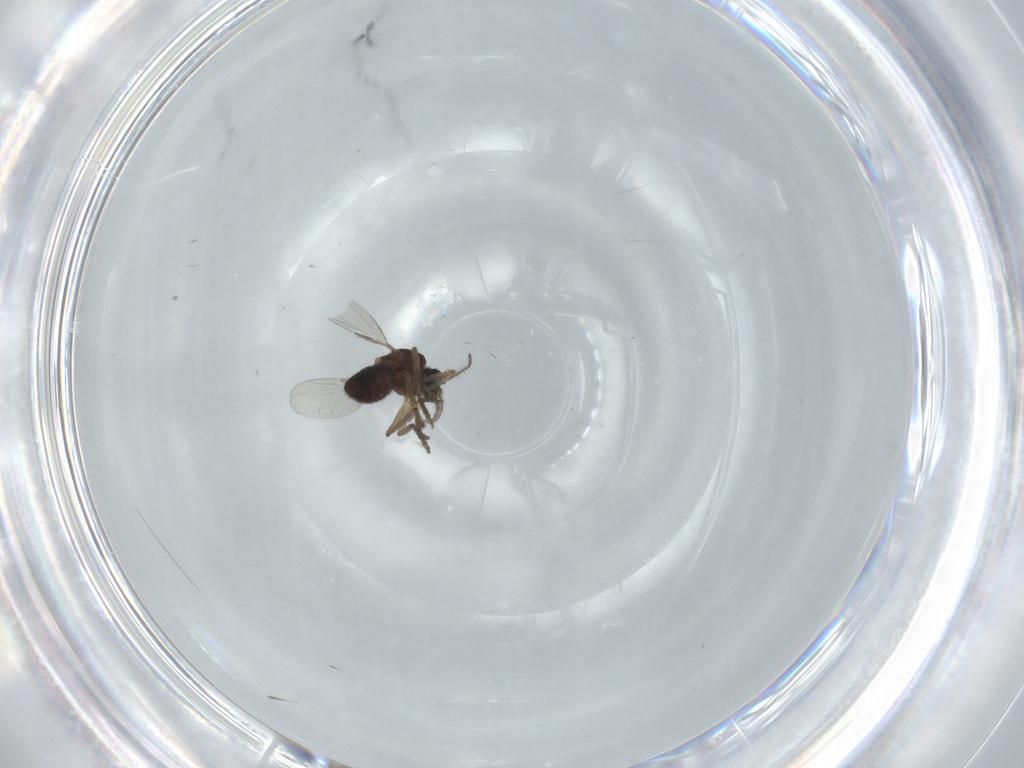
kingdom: Animalia
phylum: Arthropoda
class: Insecta
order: Diptera
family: Ceratopogonidae
